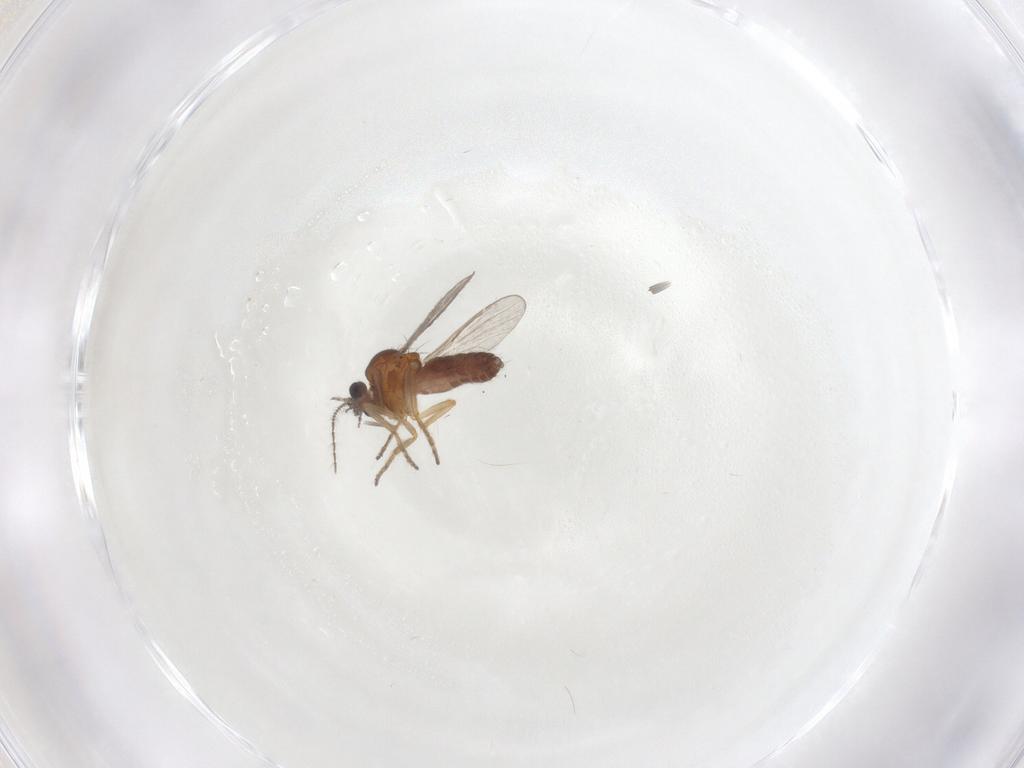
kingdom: Animalia
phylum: Arthropoda
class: Insecta
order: Diptera
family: Ceratopogonidae
